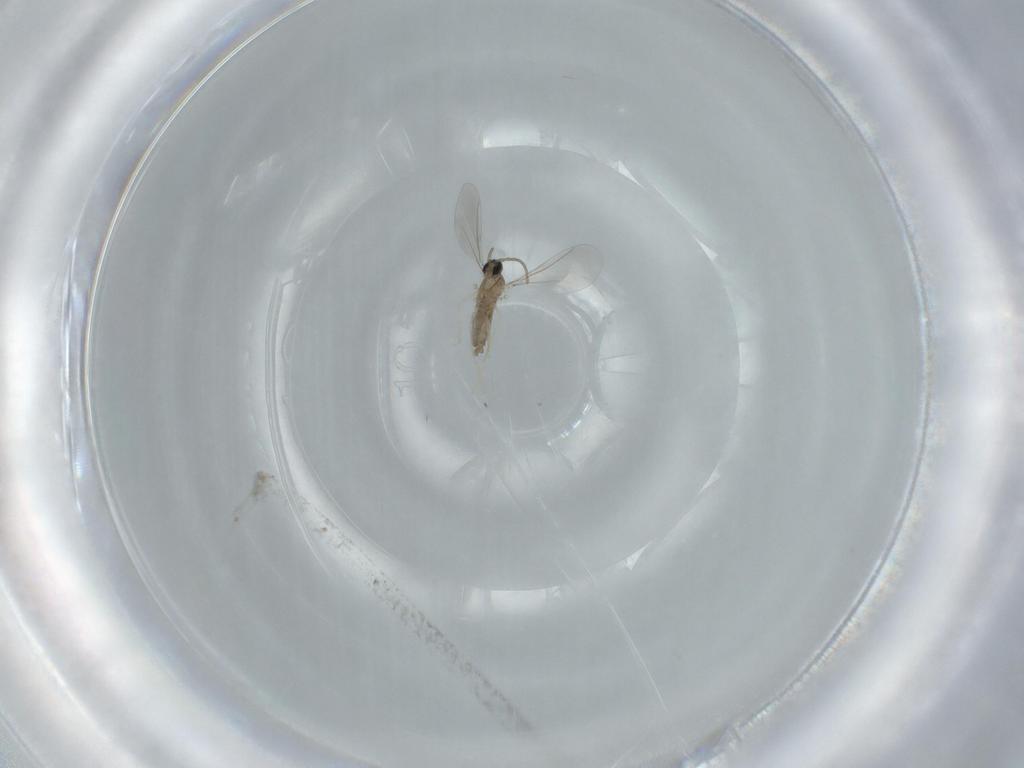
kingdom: Animalia
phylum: Arthropoda
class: Insecta
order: Diptera
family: Cecidomyiidae
